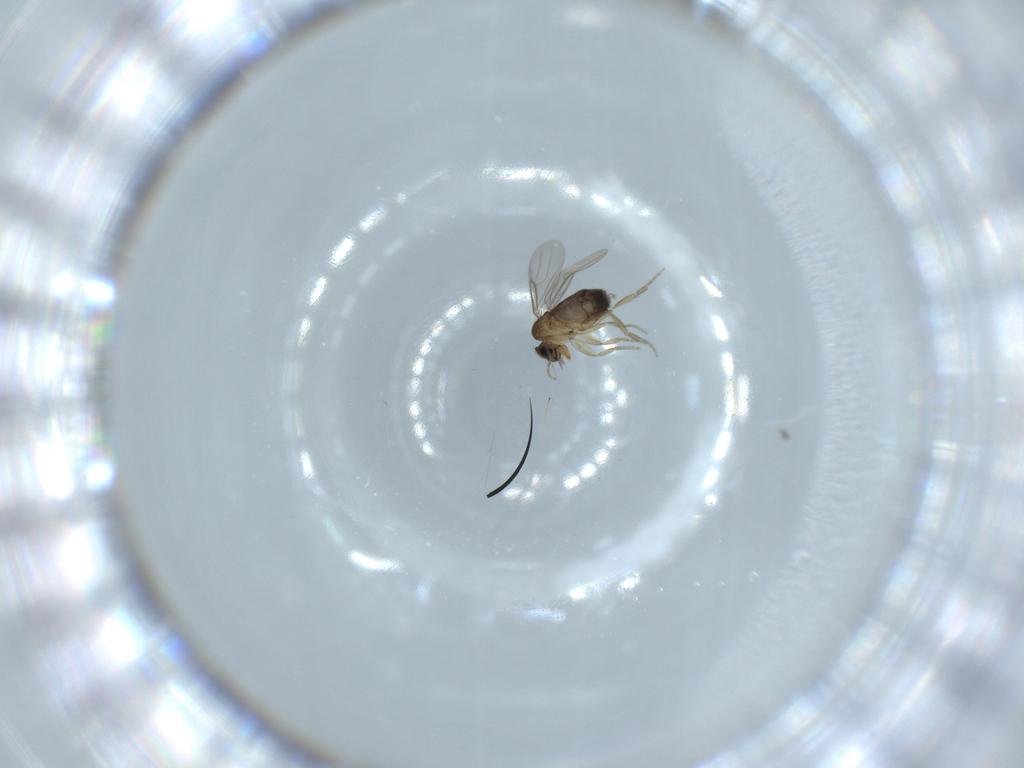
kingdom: Animalia
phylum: Arthropoda
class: Insecta
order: Diptera
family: Phoridae
